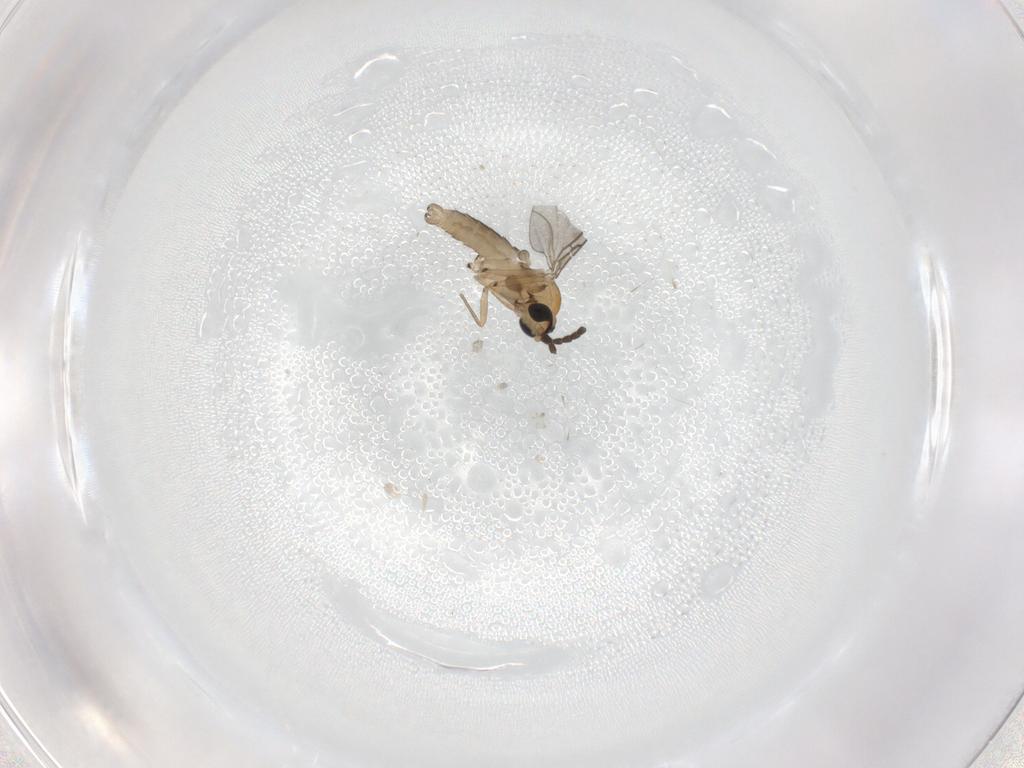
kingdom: Animalia
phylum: Arthropoda
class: Insecta
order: Diptera
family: Sciaridae
